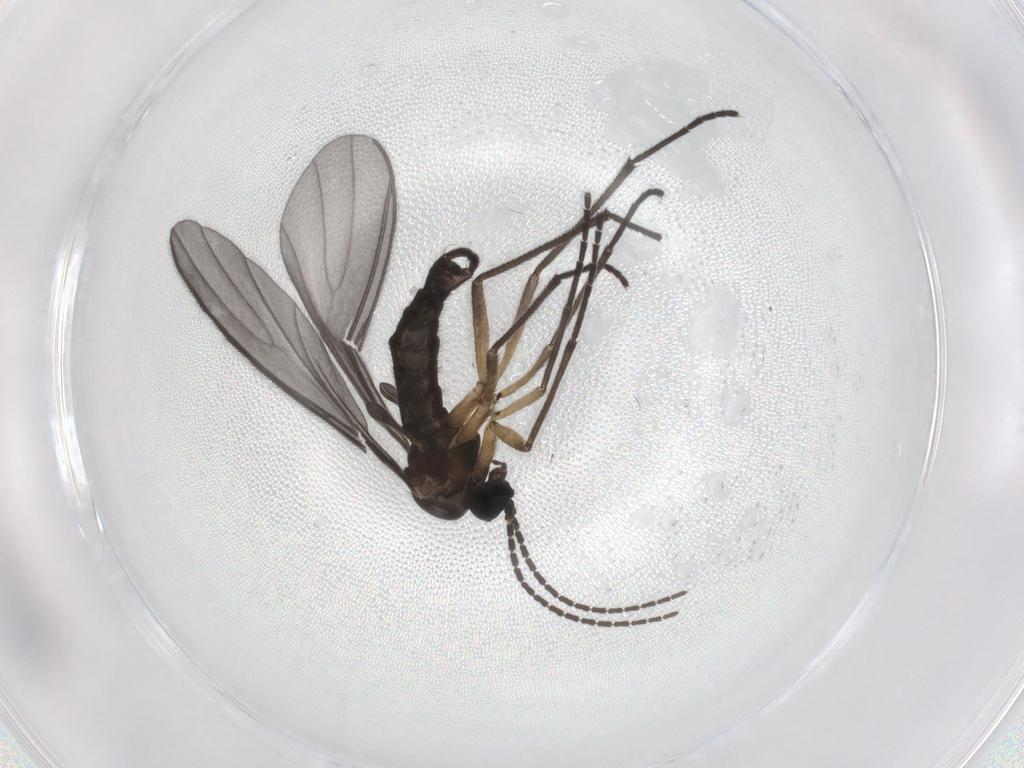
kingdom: Animalia
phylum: Arthropoda
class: Insecta
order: Diptera
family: Sciaridae
